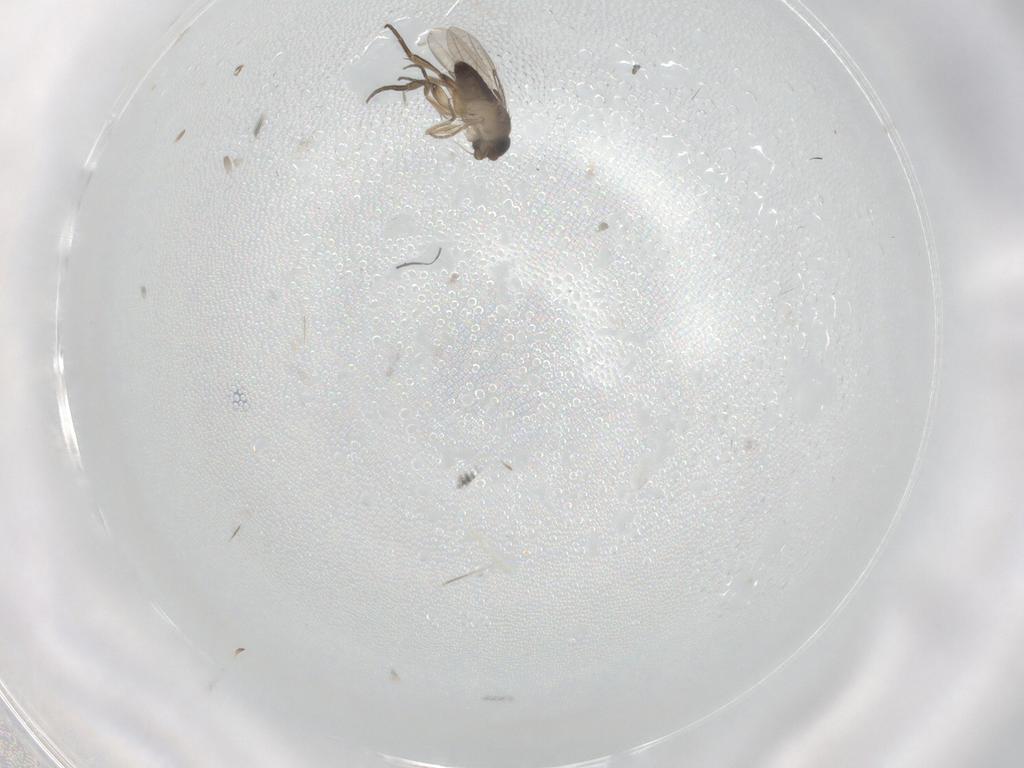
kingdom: Animalia
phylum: Arthropoda
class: Insecta
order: Diptera
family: Phoridae
